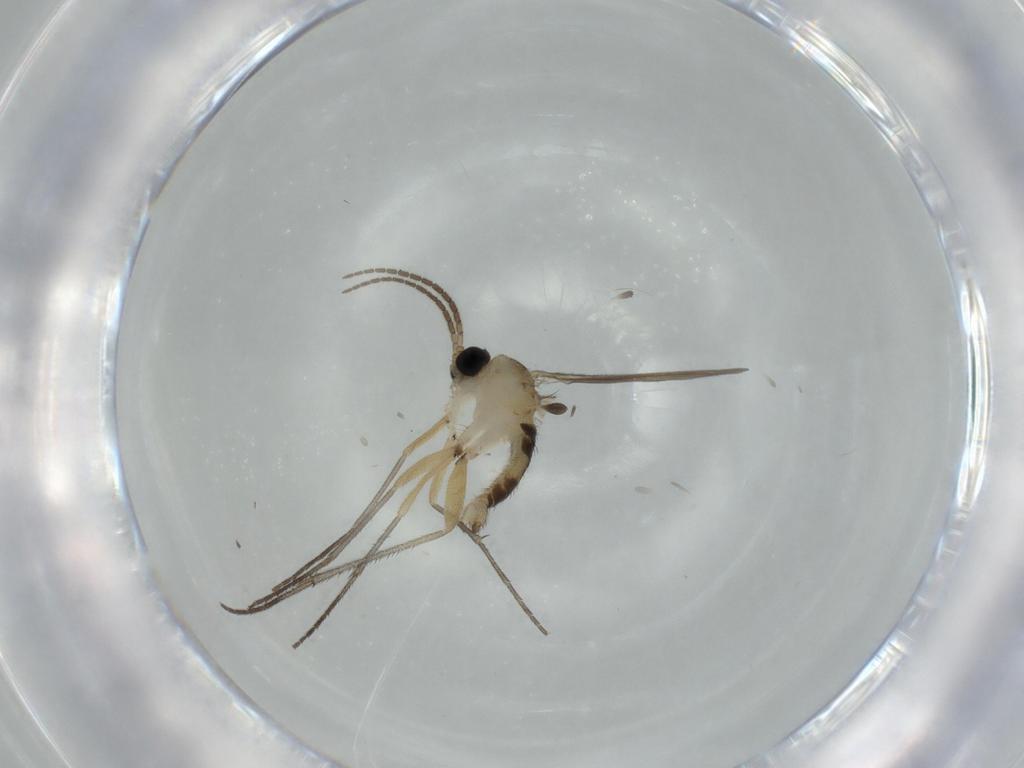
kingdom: Animalia
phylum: Arthropoda
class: Insecta
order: Diptera
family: Sciaridae
